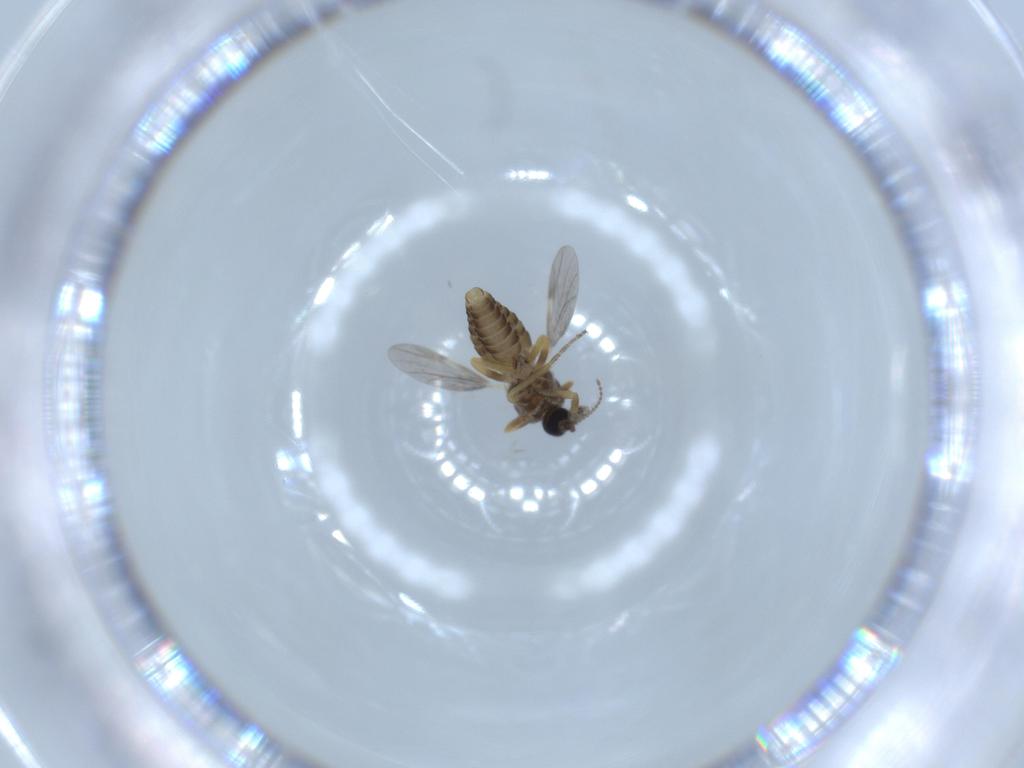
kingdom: Animalia
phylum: Arthropoda
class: Insecta
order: Diptera
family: Ceratopogonidae
